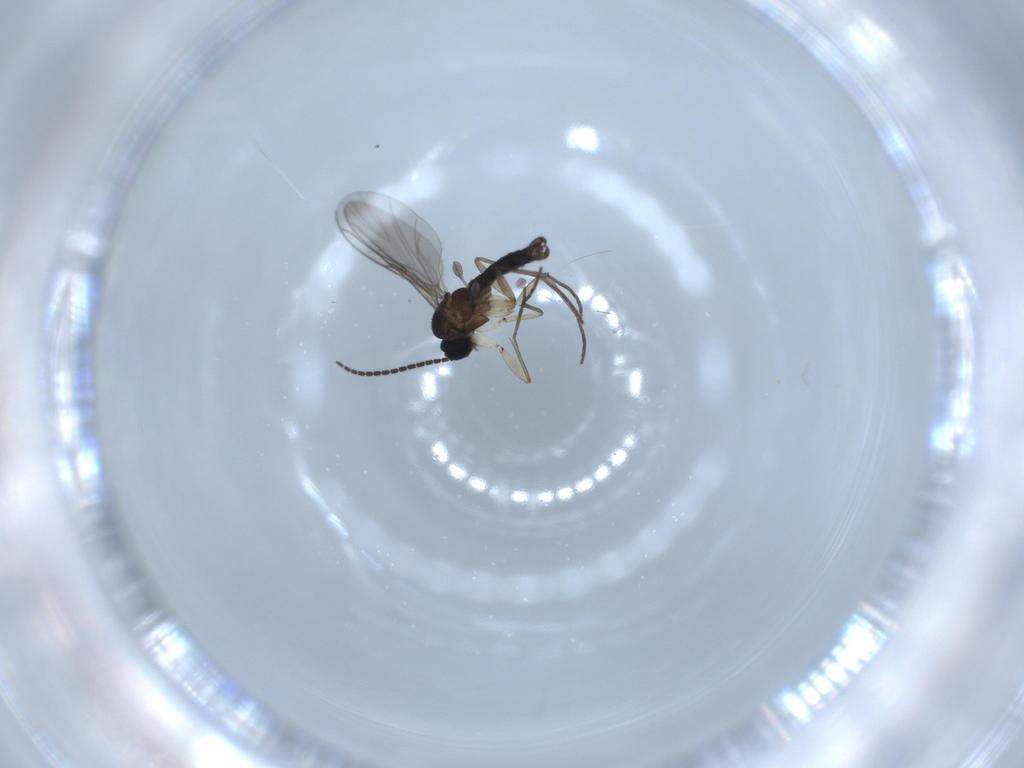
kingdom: Animalia
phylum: Arthropoda
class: Insecta
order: Diptera
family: Sciaridae
